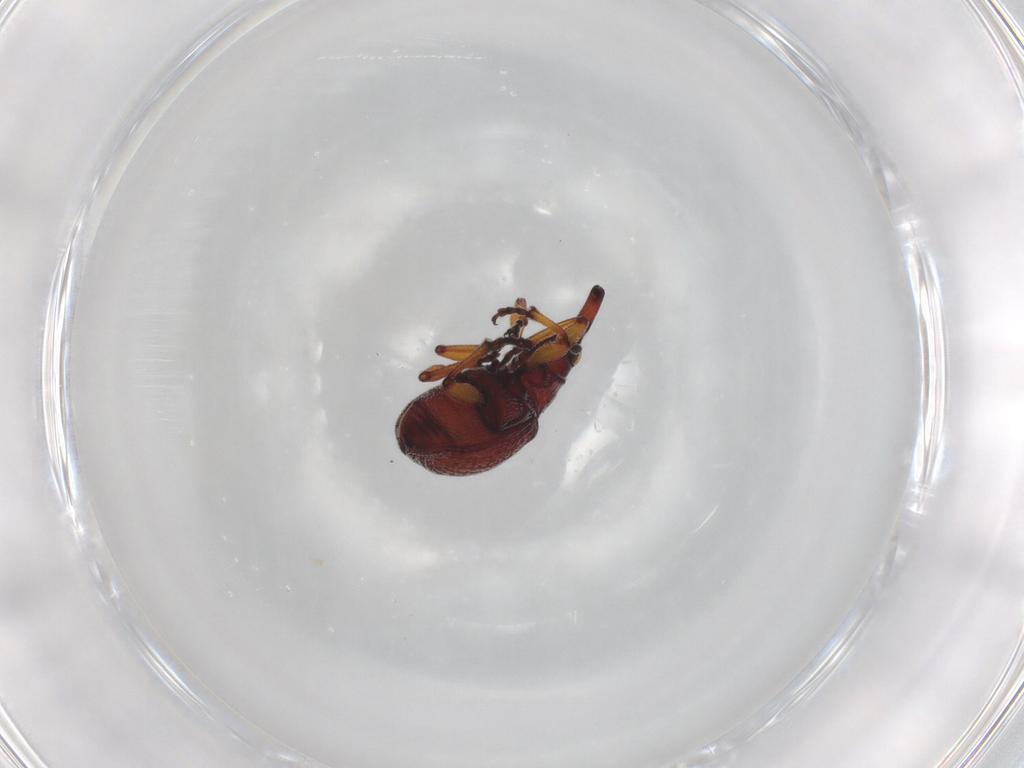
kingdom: Animalia
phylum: Arthropoda
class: Insecta
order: Coleoptera
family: Brentidae
